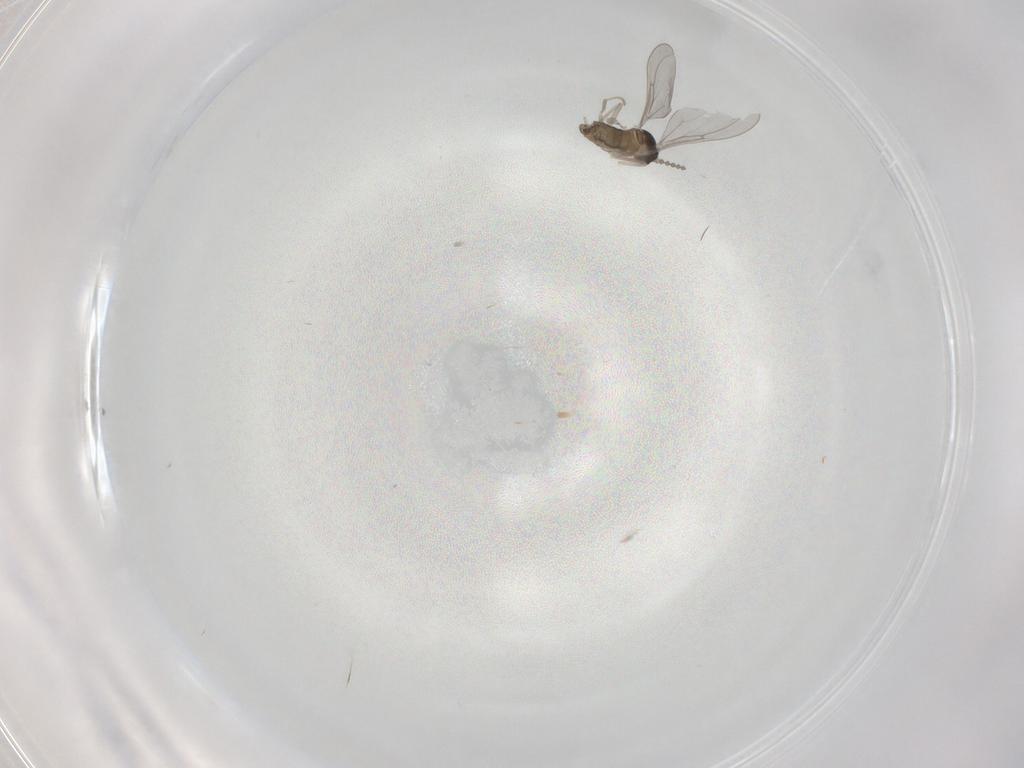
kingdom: Animalia
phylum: Arthropoda
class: Insecta
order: Diptera
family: Cecidomyiidae
